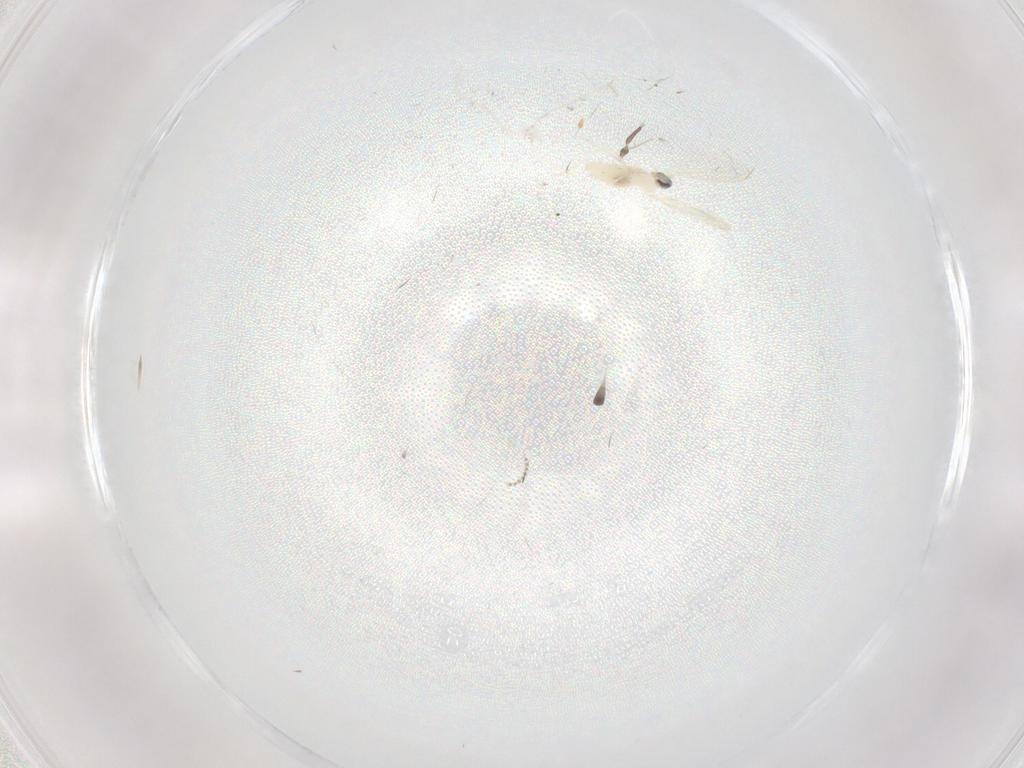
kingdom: Animalia
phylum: Arthropoda
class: Insecta
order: Diptera
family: Cecidomyiidae
